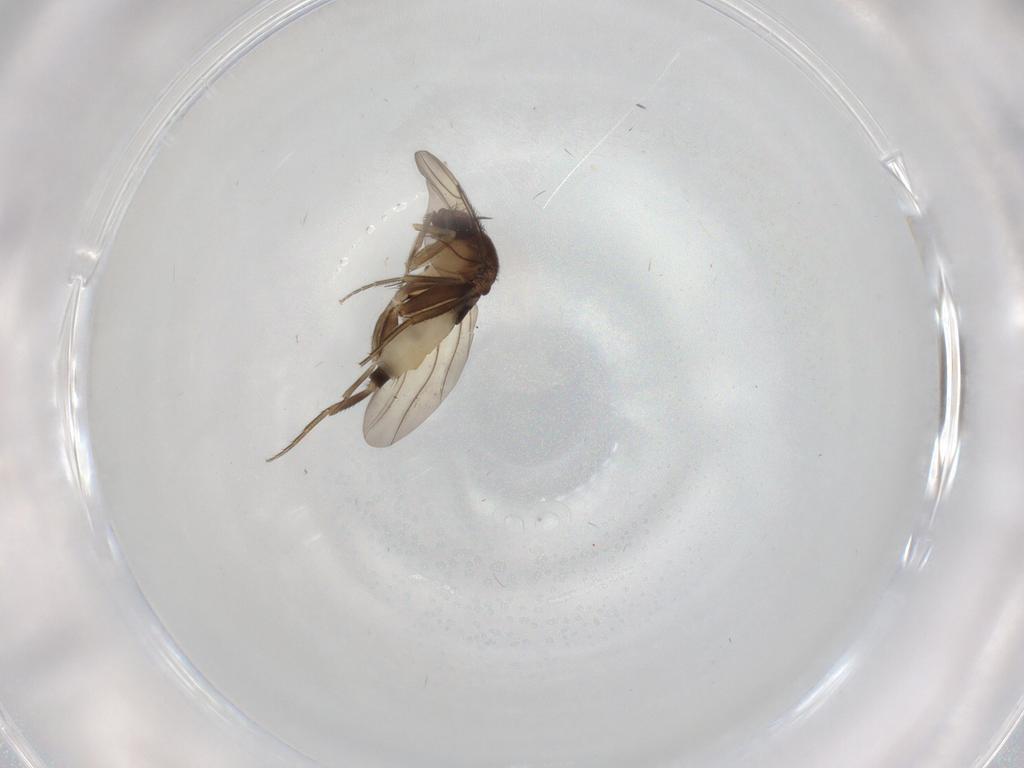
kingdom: Animalia
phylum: Arthropoda
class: Insecta
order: Diptera
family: Phoridae
